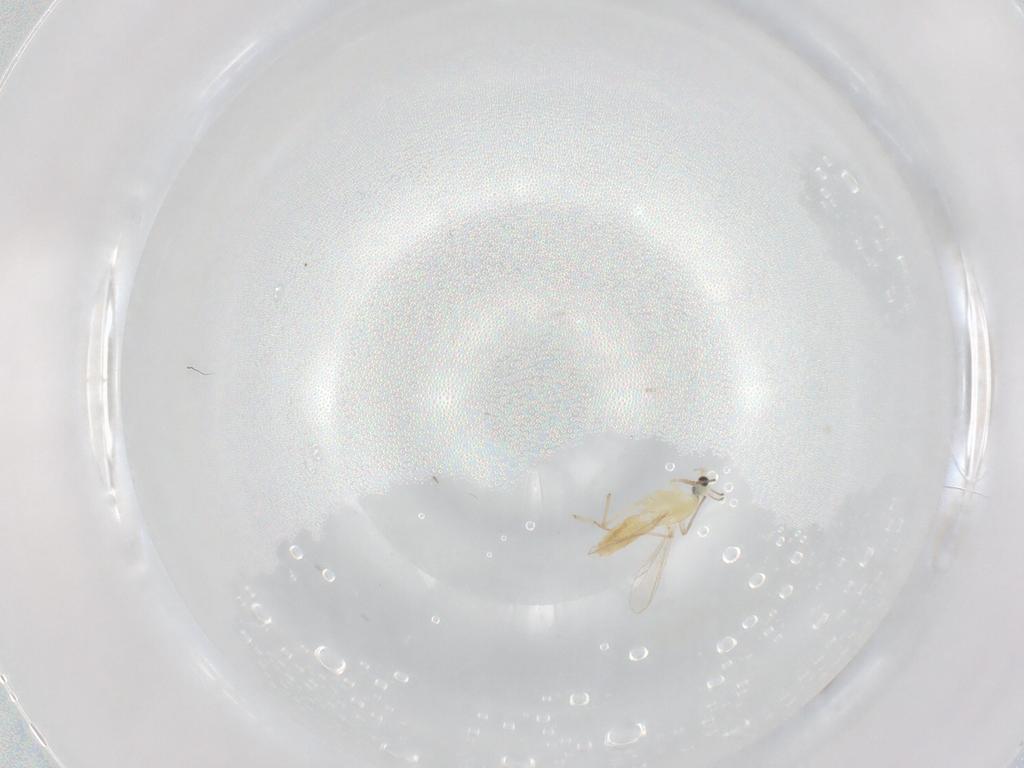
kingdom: Animalia
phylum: Arthropoda
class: Insecta
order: Diptera
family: Chironomidae
